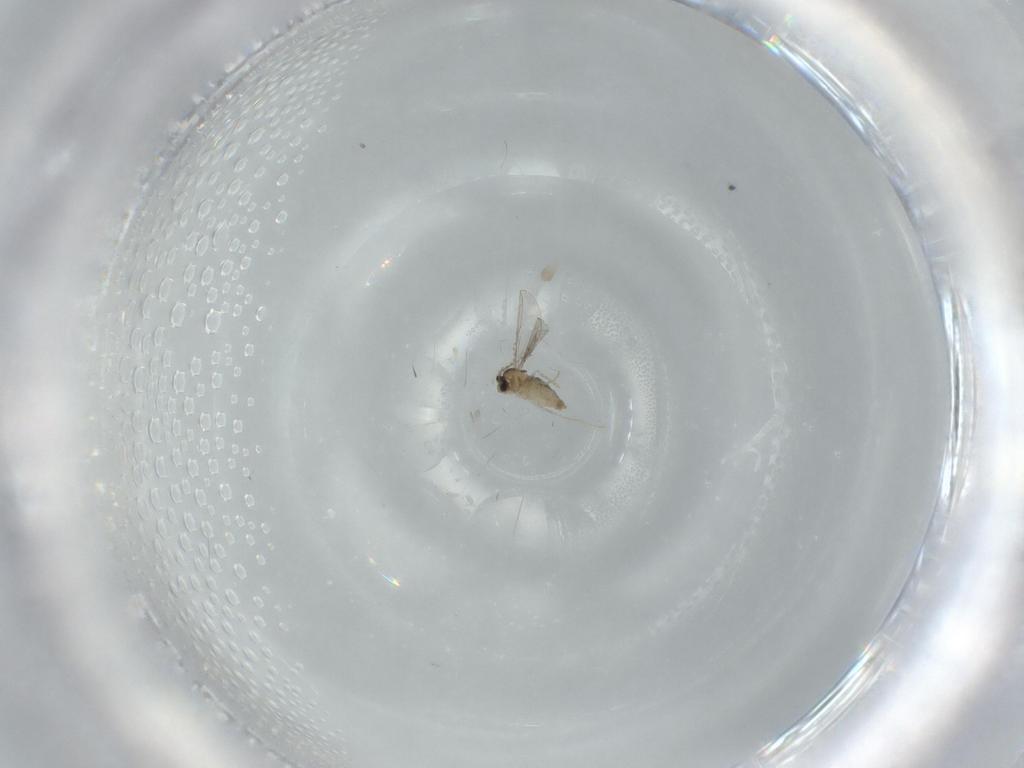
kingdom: Animalia
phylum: Arthropoda
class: Insecta
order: Diptera
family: Cecidomyiidae
